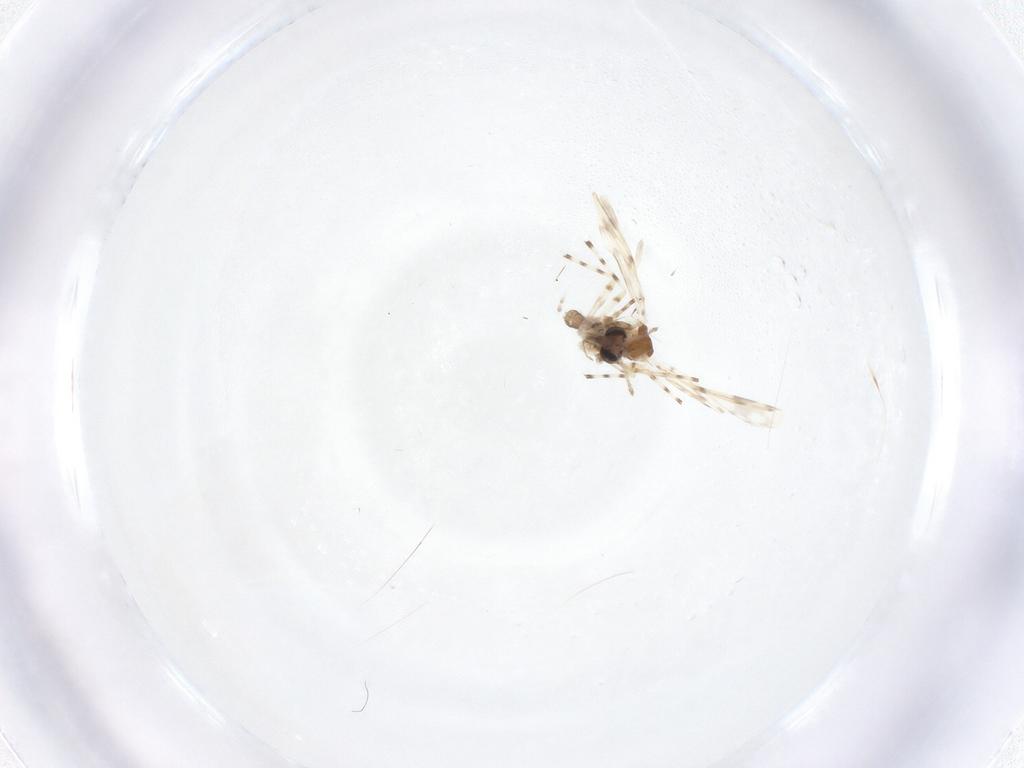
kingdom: Animalia
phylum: Arthropoda
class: Insecta
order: Diptera
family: Chironomidae
